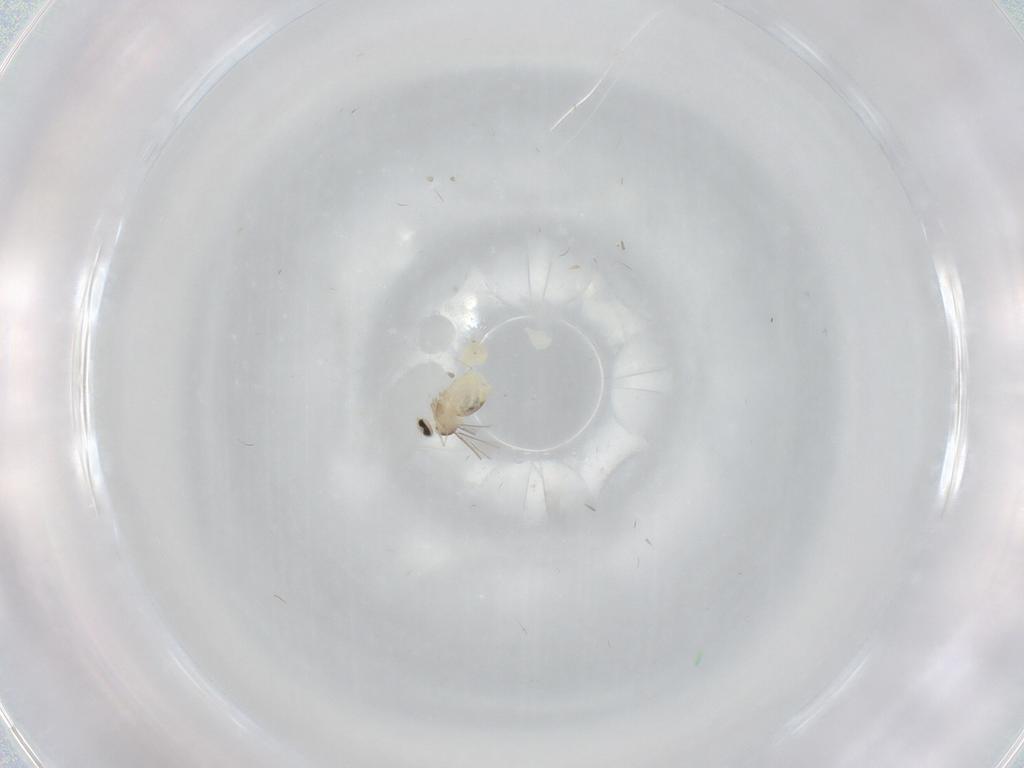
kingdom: Animalia
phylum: Arthropoda
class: Insecta
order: Diptera
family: Cecidomyiidae
